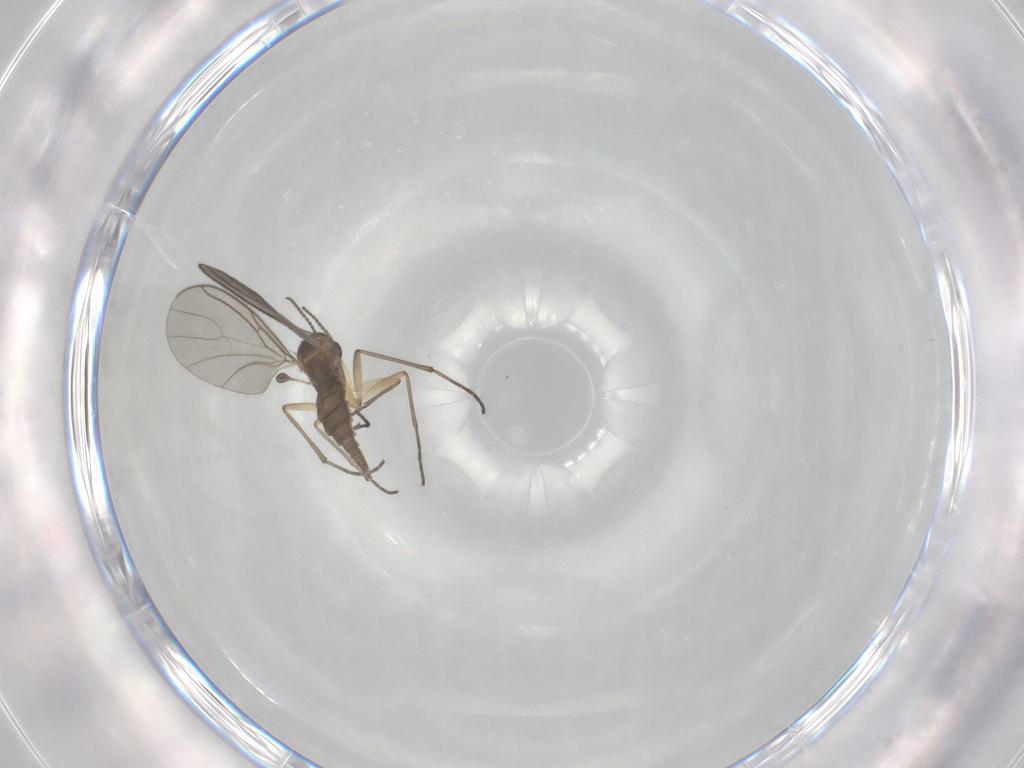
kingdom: Animalia
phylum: Arthropoda
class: Insecta
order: Diptera
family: Sciaridae
